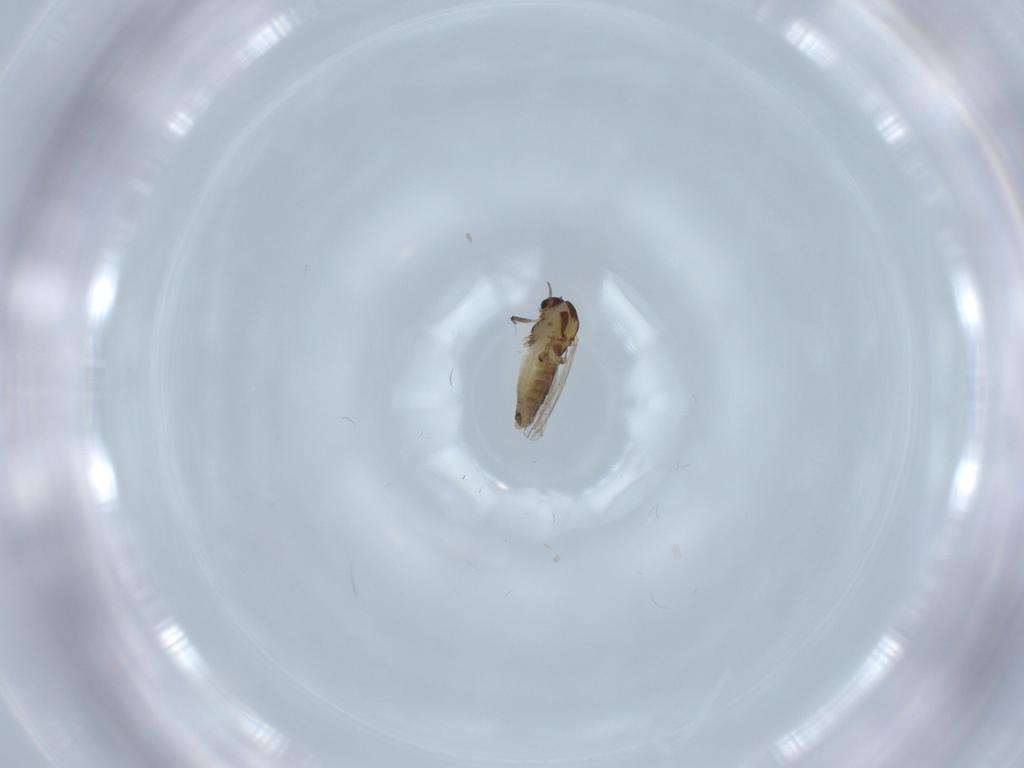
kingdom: Animalia
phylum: Arthropoda
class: Insecta
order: Diptera
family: Chironomidae
